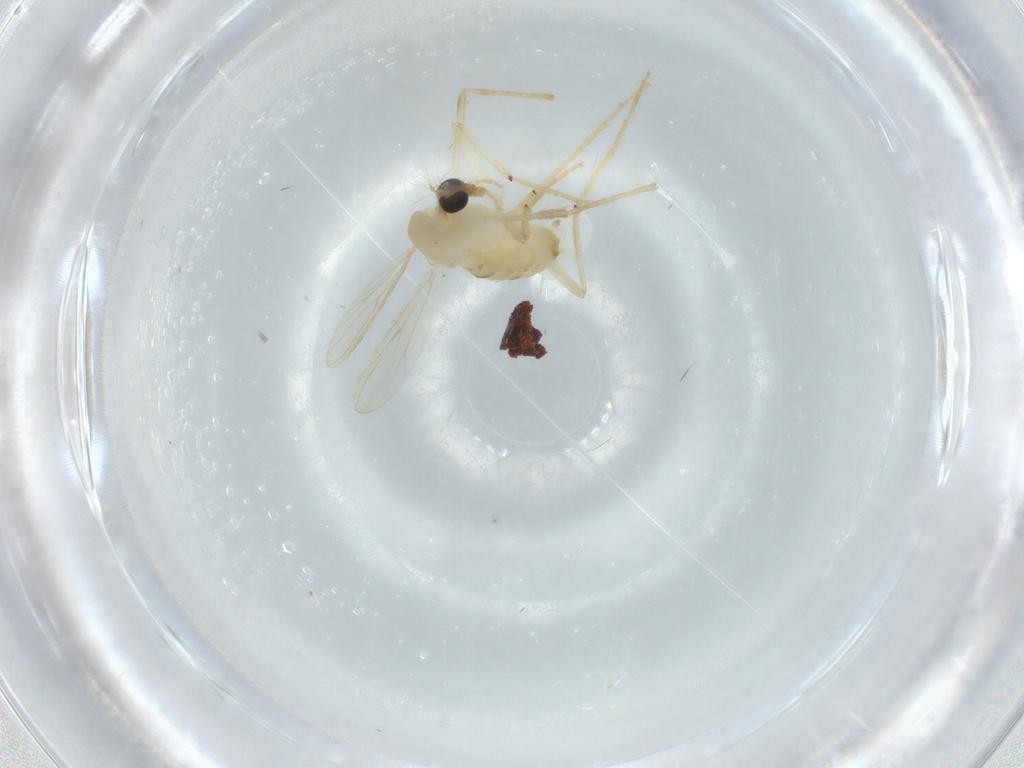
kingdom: Animalia
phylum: Arthropoda
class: Insecta
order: Diptera
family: Chironomidae
